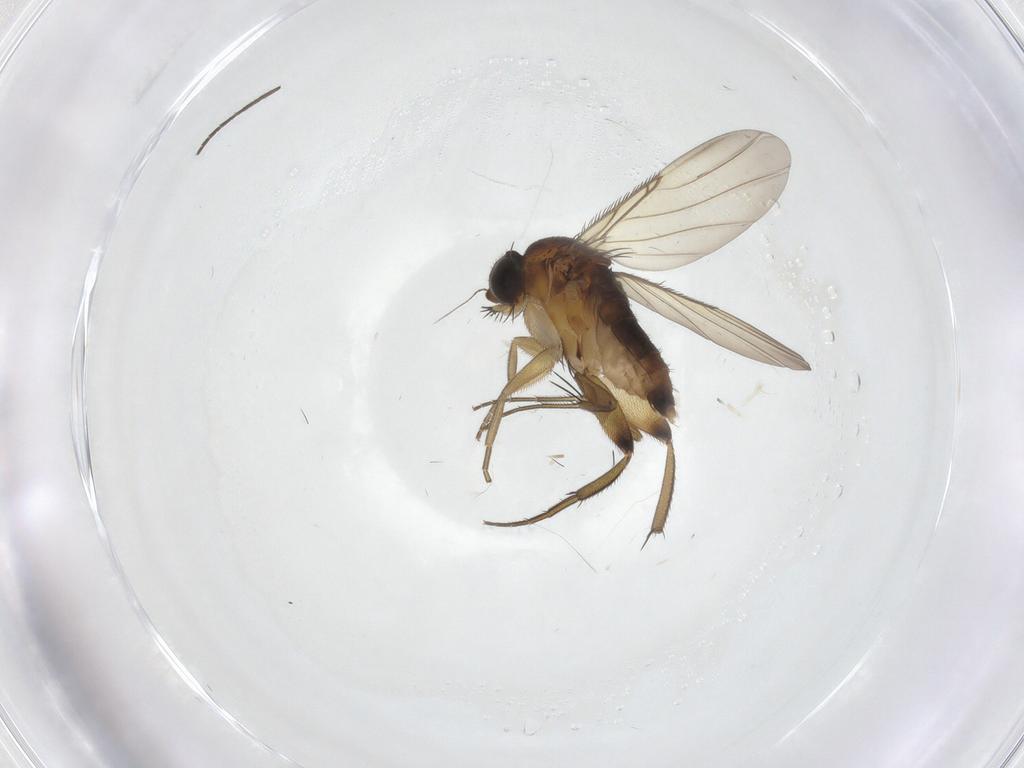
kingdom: Animalia
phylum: Arthropoda
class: Insecta
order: Diptera
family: Phoridae
